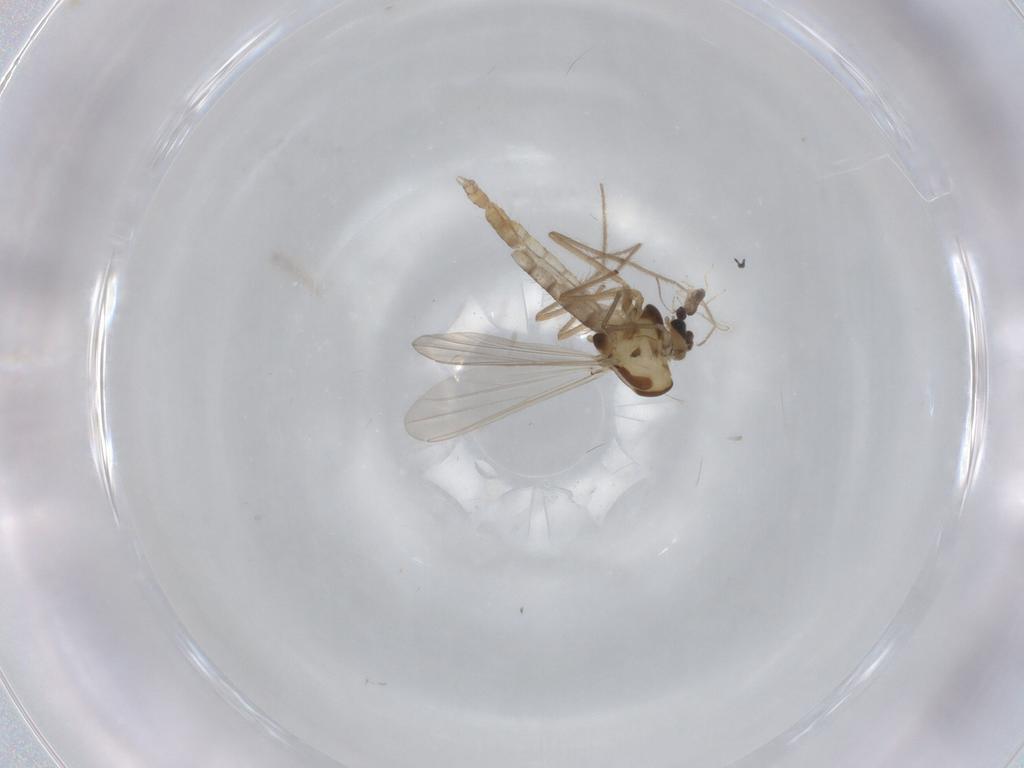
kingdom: Animalia
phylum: Arthropoda
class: Insecta
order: Diptera
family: Chironomidae
